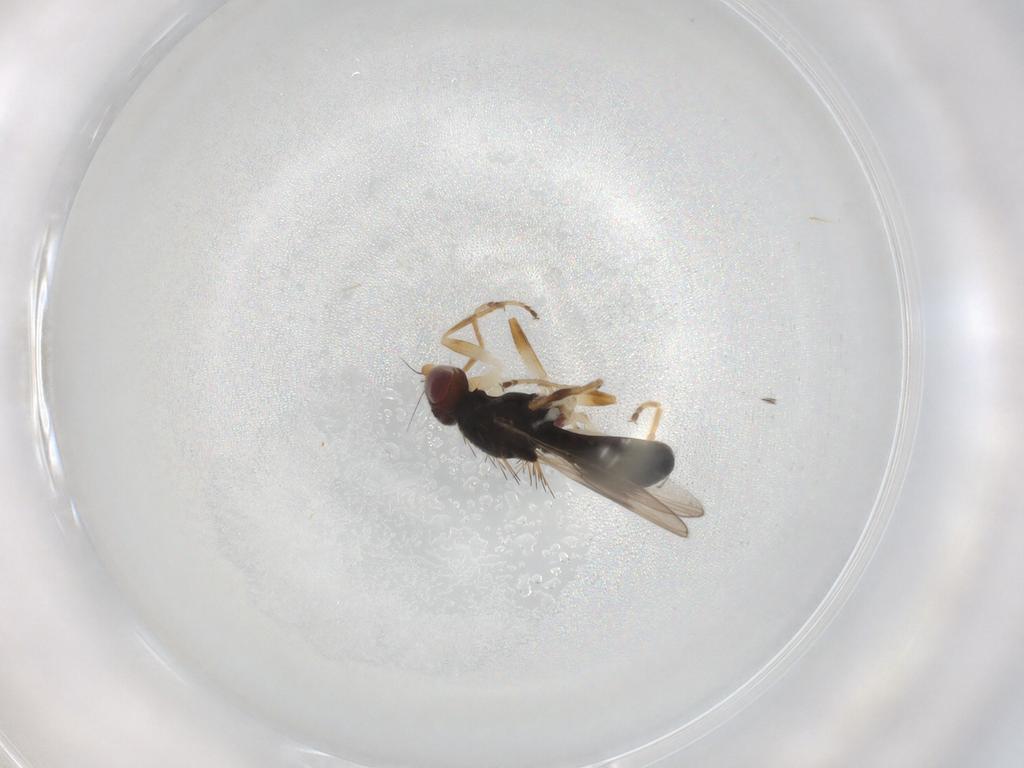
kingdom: Animalia
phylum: Arthropoda
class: Insecta
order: Diptera
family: Chloropidae
